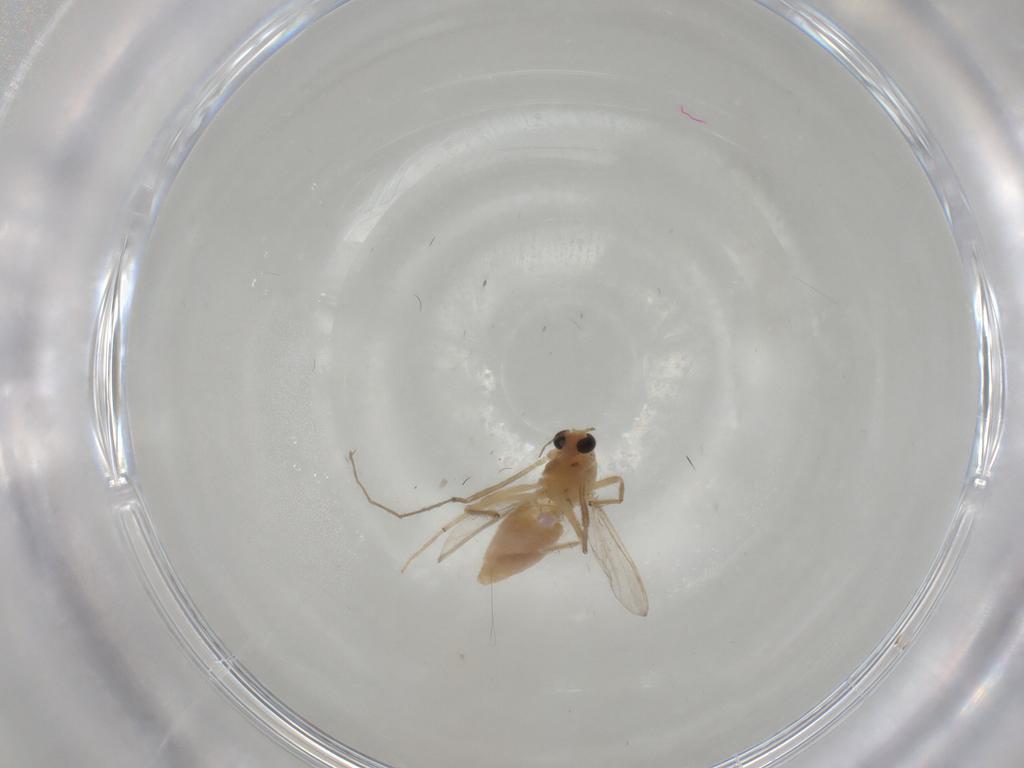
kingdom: Animalia
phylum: Arthropoda
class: Insecta
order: Diptera
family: Chironomidae
